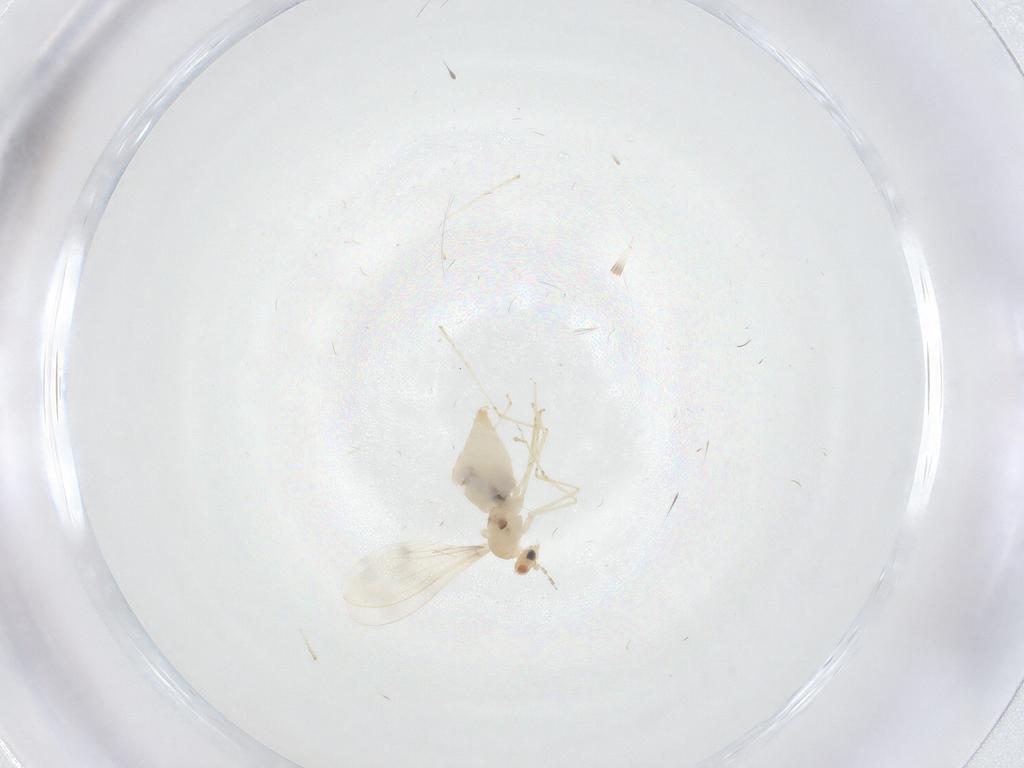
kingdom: Animalia
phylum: Arthropoda
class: Insecta
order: Diptera
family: Cecidomyiidae
